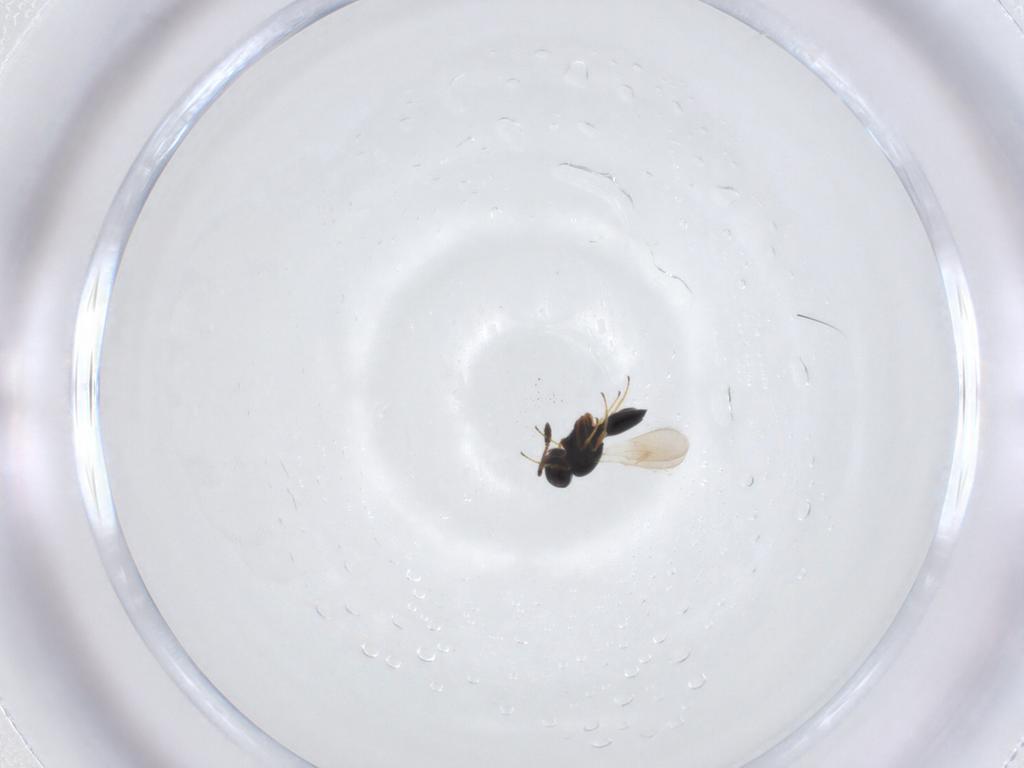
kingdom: Animalia
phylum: Arthropoda
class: Insecta
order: Hymenoptera
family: Scelionidae
